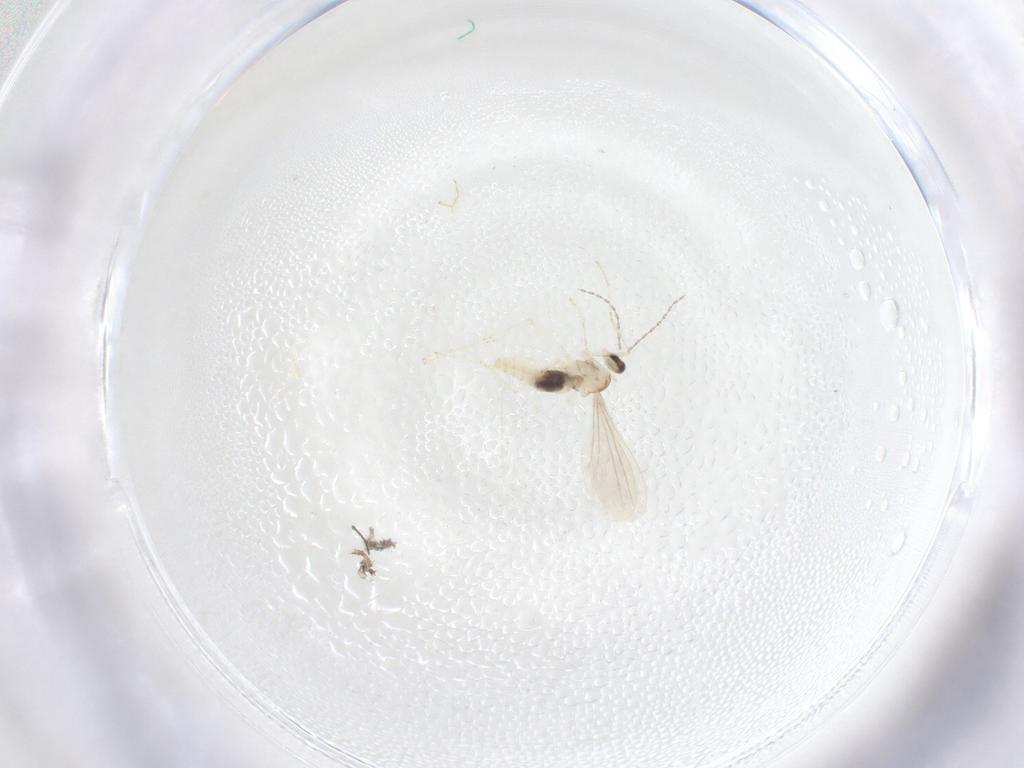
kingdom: Animalia
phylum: Arthropoda
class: Insecta
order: Diptera
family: Cecidomyiidae
